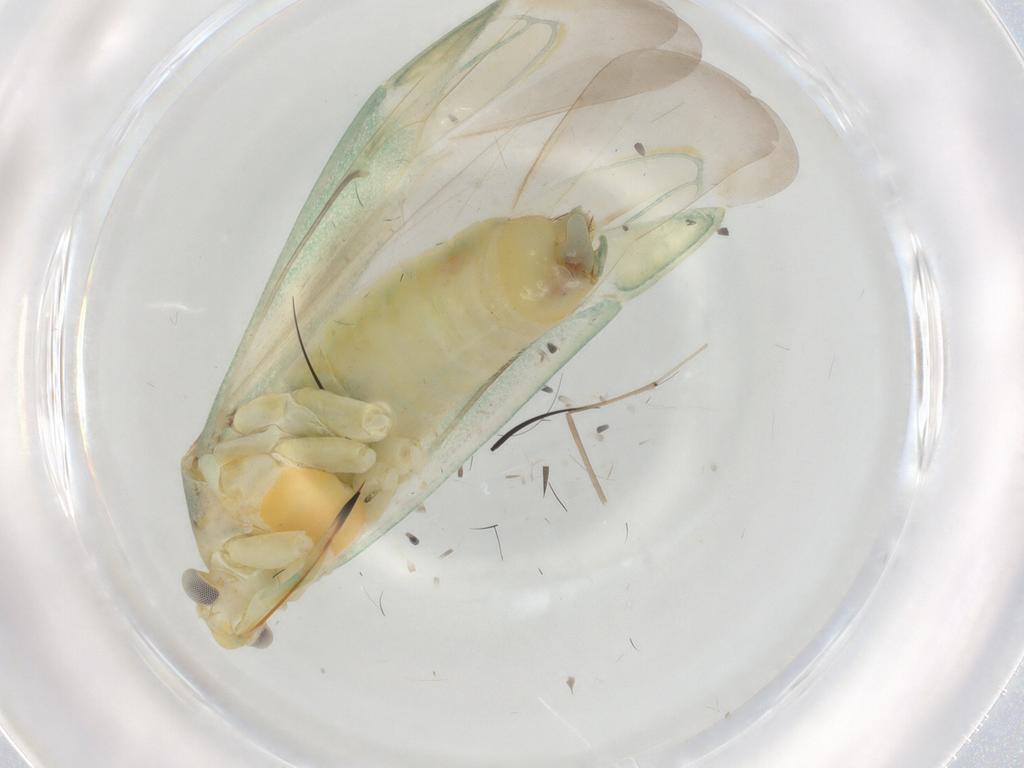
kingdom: Animalia
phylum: Arthropoda
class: Insecta
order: Hemiptera
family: Miridae
